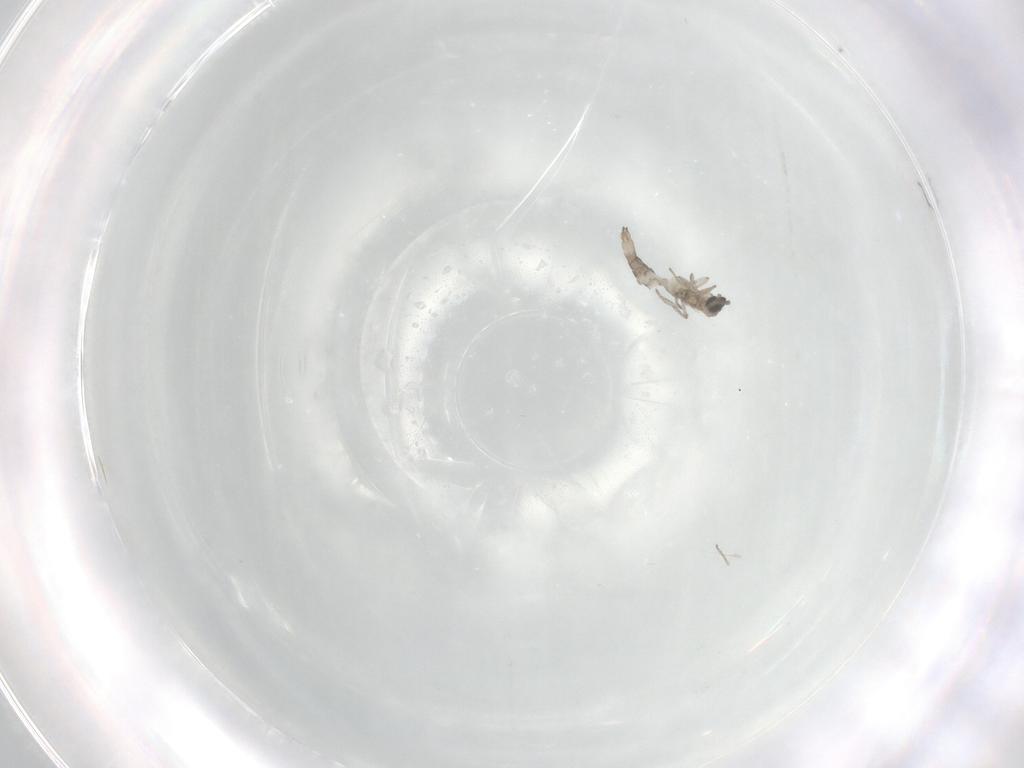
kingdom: Animalia
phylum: Arthropoda
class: Insecta
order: Diptera
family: Cecidomyiidae
